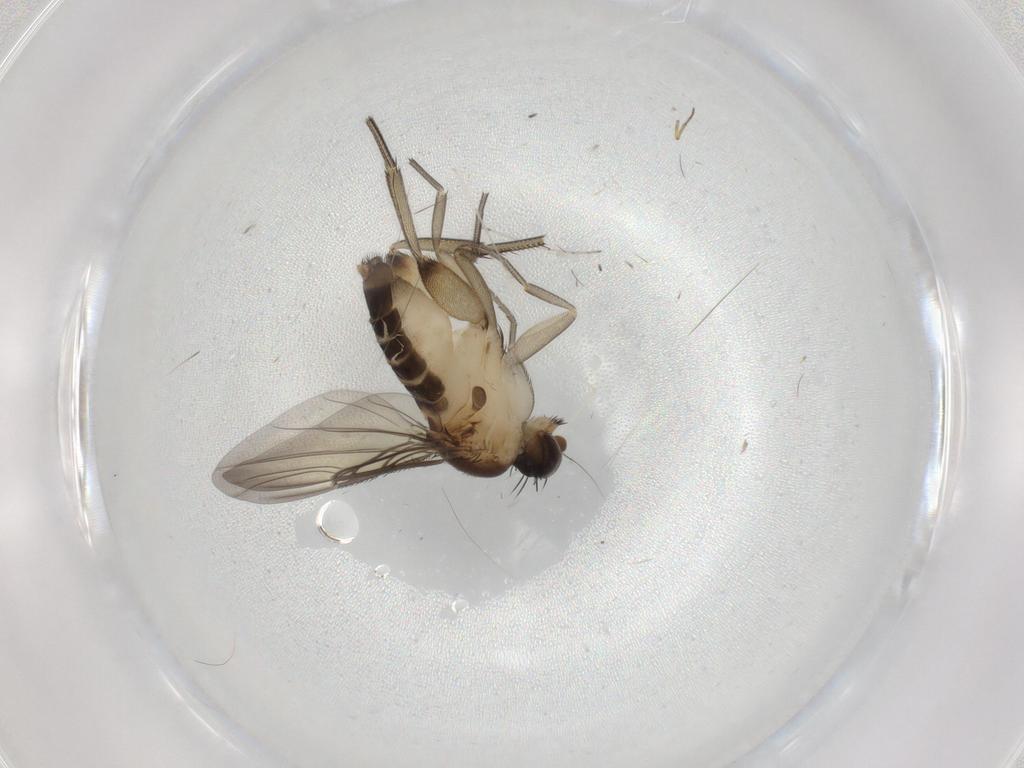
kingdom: Animalia
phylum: Arthropoda
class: Insecta
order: Diptera
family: Phoridae
